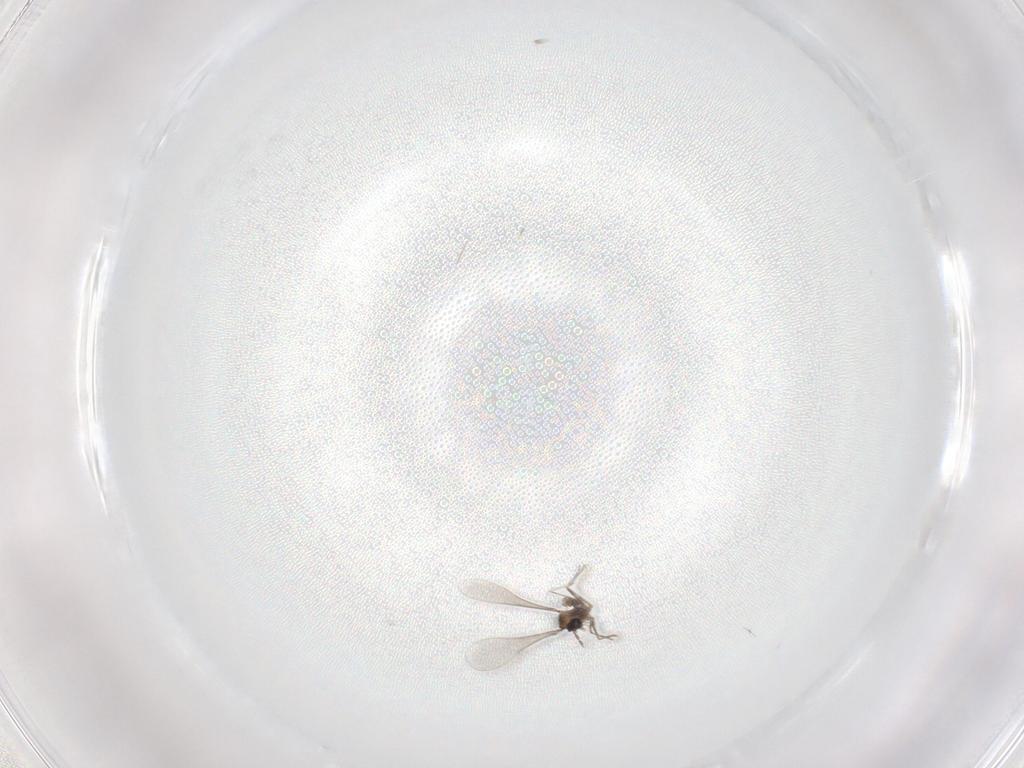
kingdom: Animalia
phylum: Arthropoda
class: Insecta
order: Diptera
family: Cecidomyiidae
